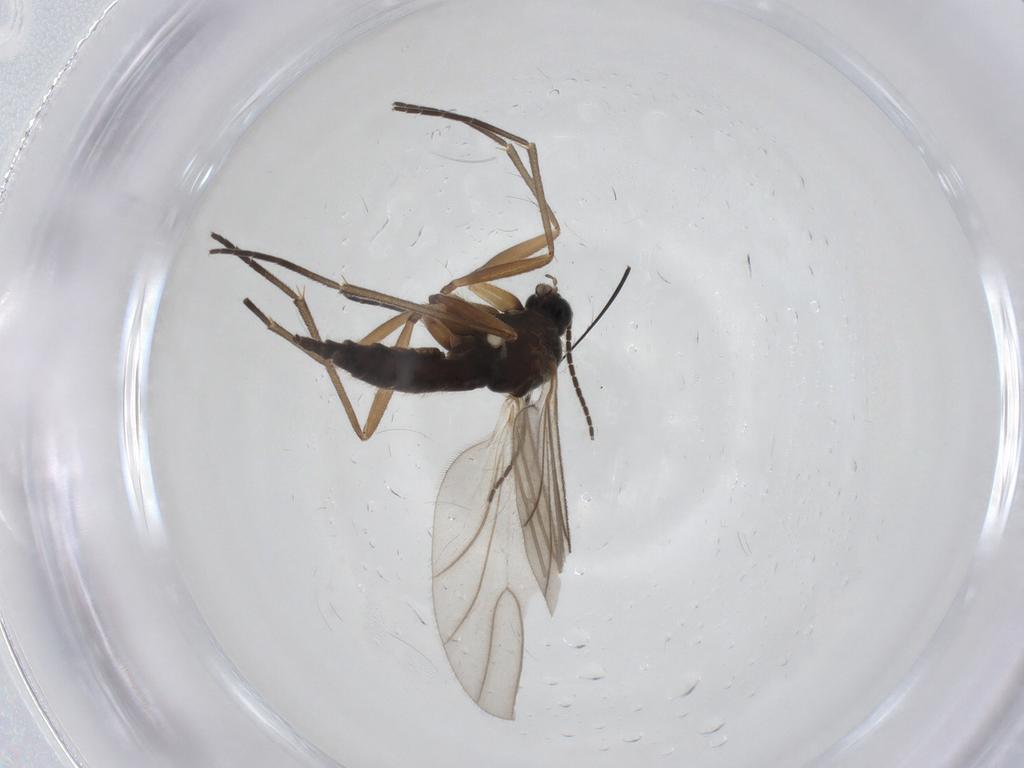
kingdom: Animalia
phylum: Arthropoda
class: Insecta
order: Diptera
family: Sciaridae
